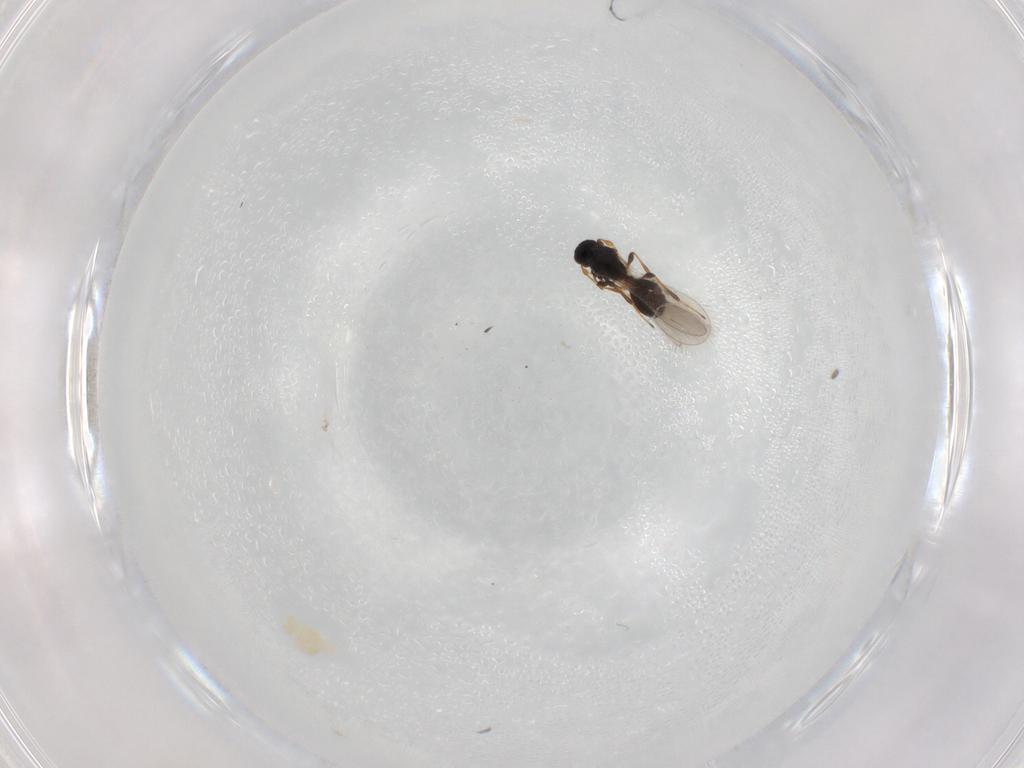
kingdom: Animalia
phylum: Arthropoda
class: Insecta
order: Hymenoptera
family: Platygastridae
